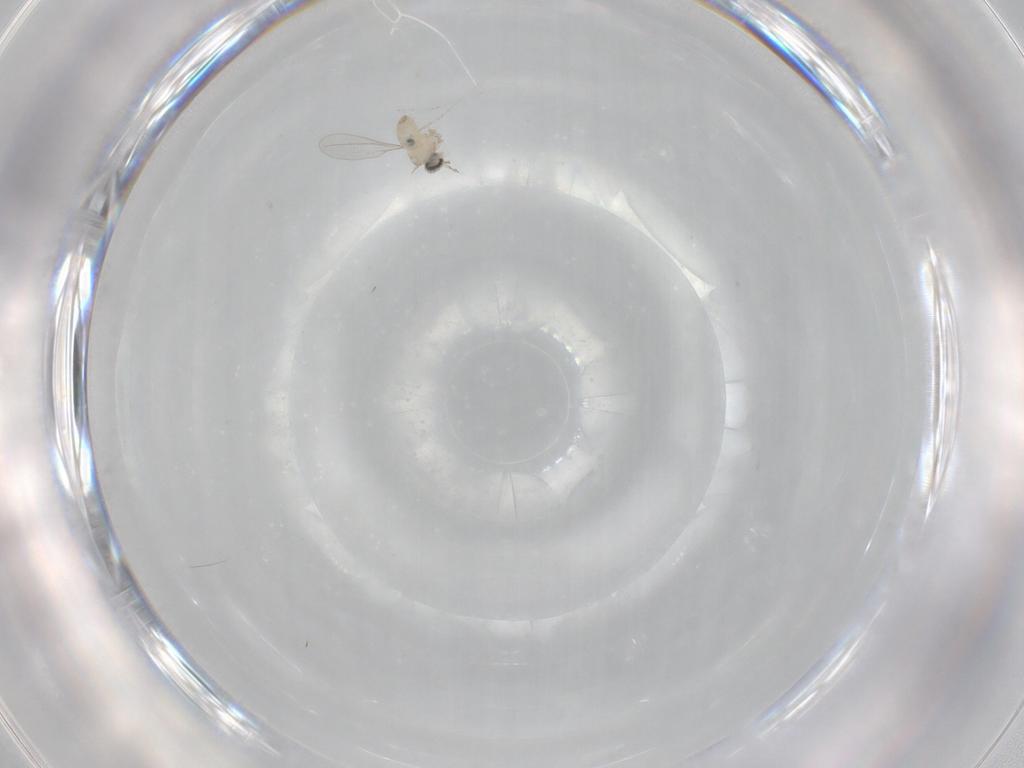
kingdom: Animalia
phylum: Arthropoda
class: Insecta
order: Diptera
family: Cecidomyiidae
